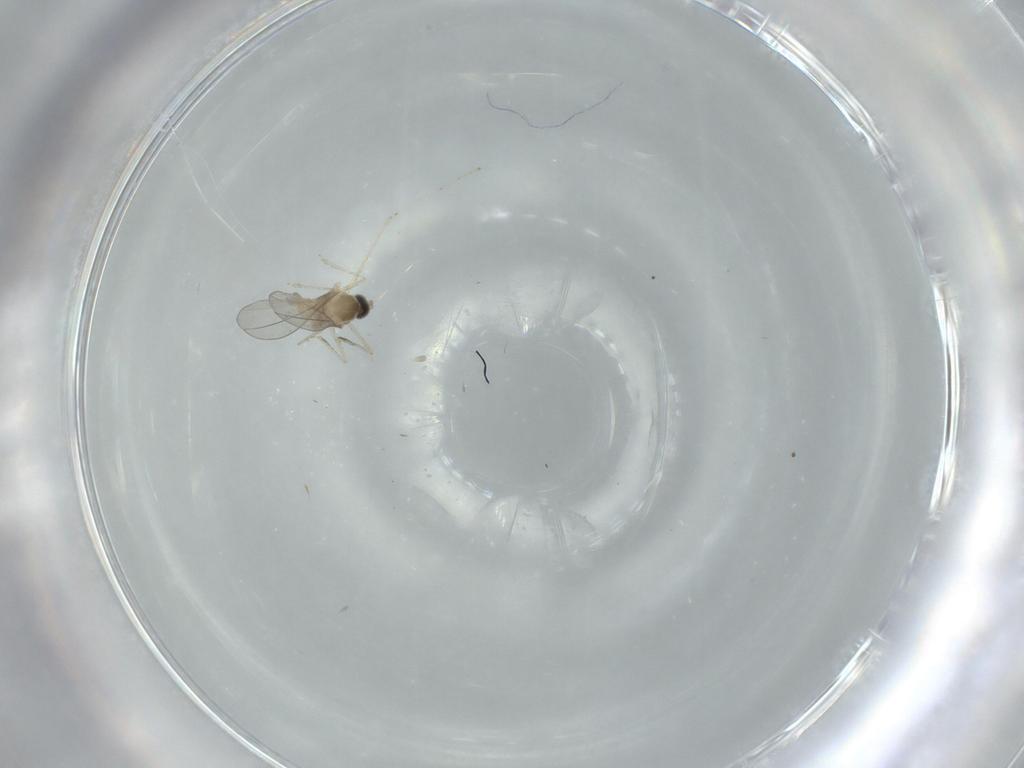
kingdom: Animalia
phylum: Arthropoda
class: Insecta
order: Diptera
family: Cecidomyiidae
